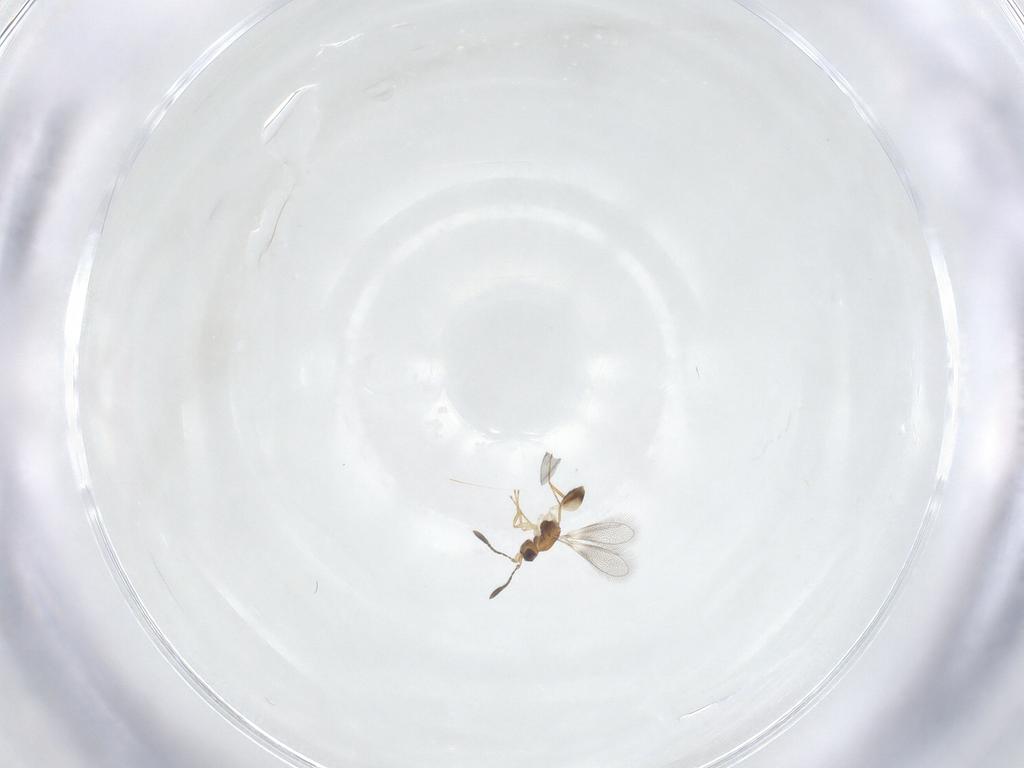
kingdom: Animalia
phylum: Arthropoda
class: Insecta
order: Hymenoptera
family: Mymaridae
